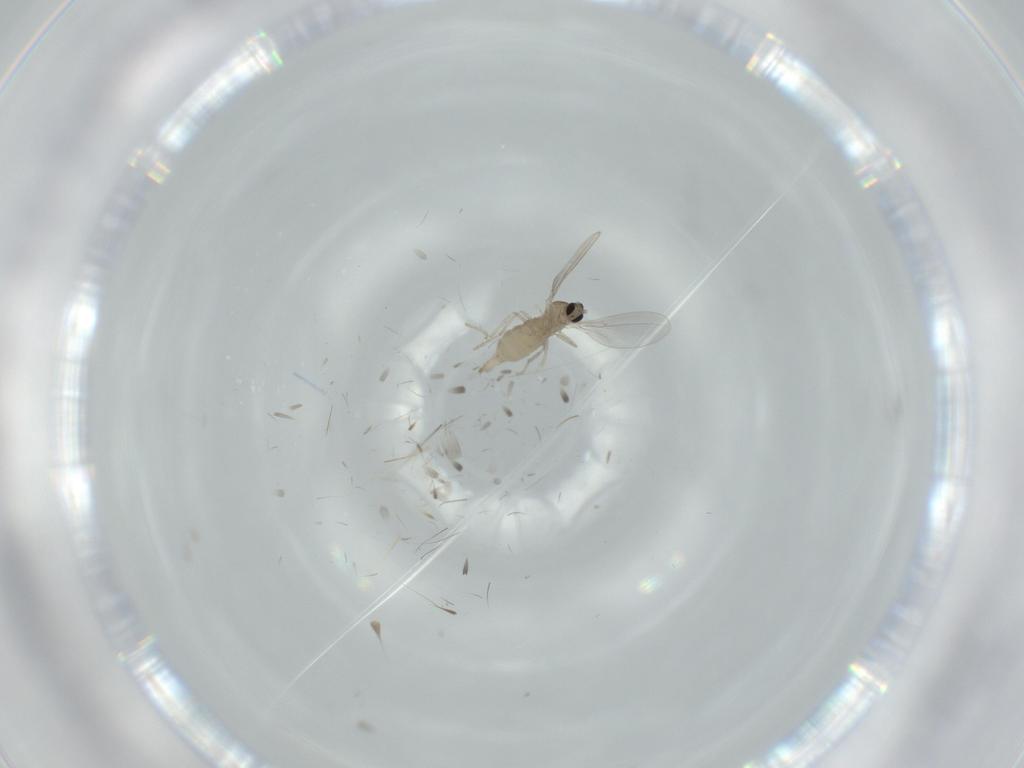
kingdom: Animalia
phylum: Arthropoda
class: Insecta
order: Diptera
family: Cecidomyiidae
